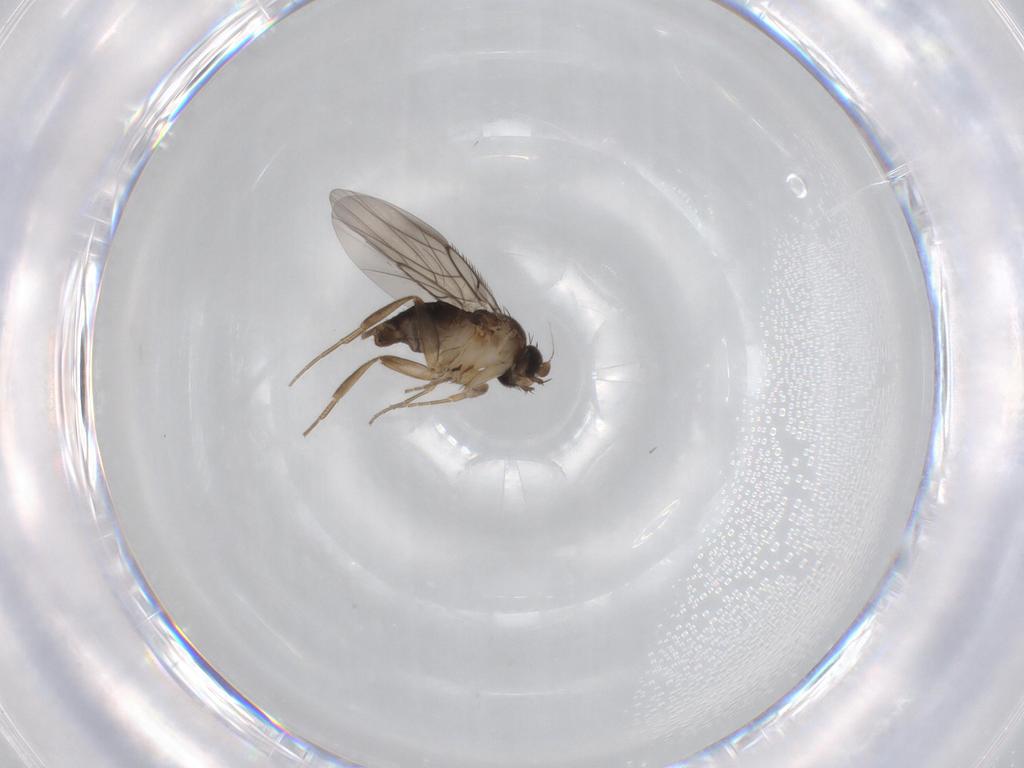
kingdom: Animalia
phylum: Arthropoda
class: Insecta
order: Diptera
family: Phoridae
